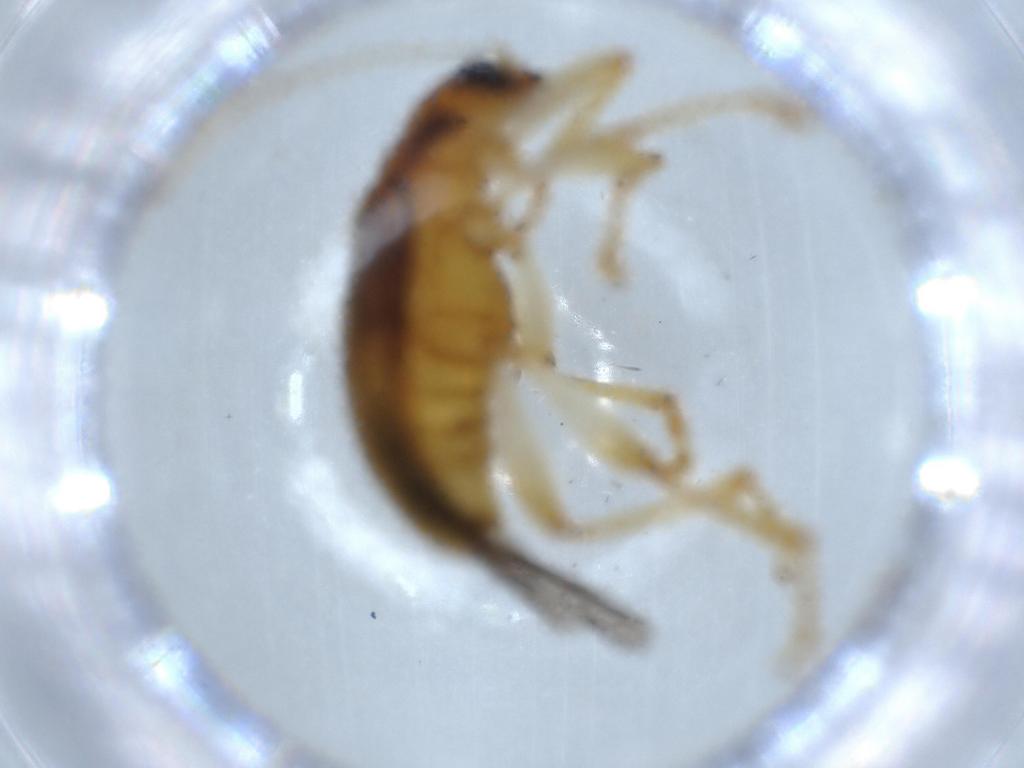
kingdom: Animalia
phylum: Arthropoda
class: Insecta
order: Coleoptera
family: Chrysomelidae
